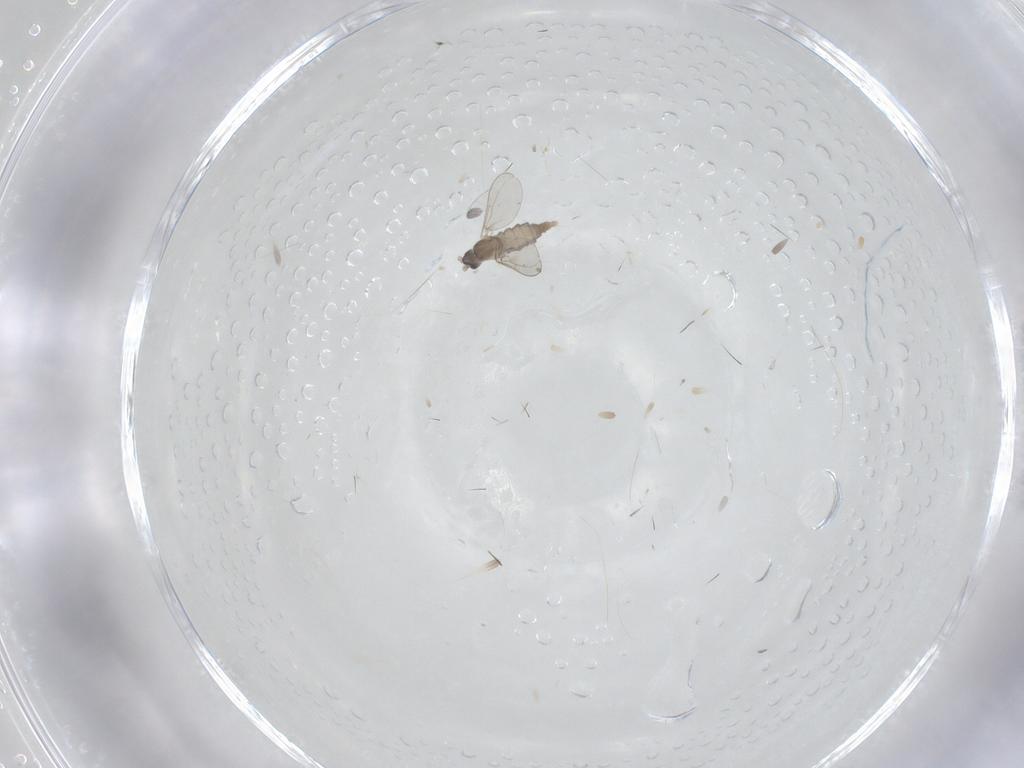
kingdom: Animalia
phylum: Arthropoda
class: Insecta
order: Diptera
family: Cecidomyiidae
